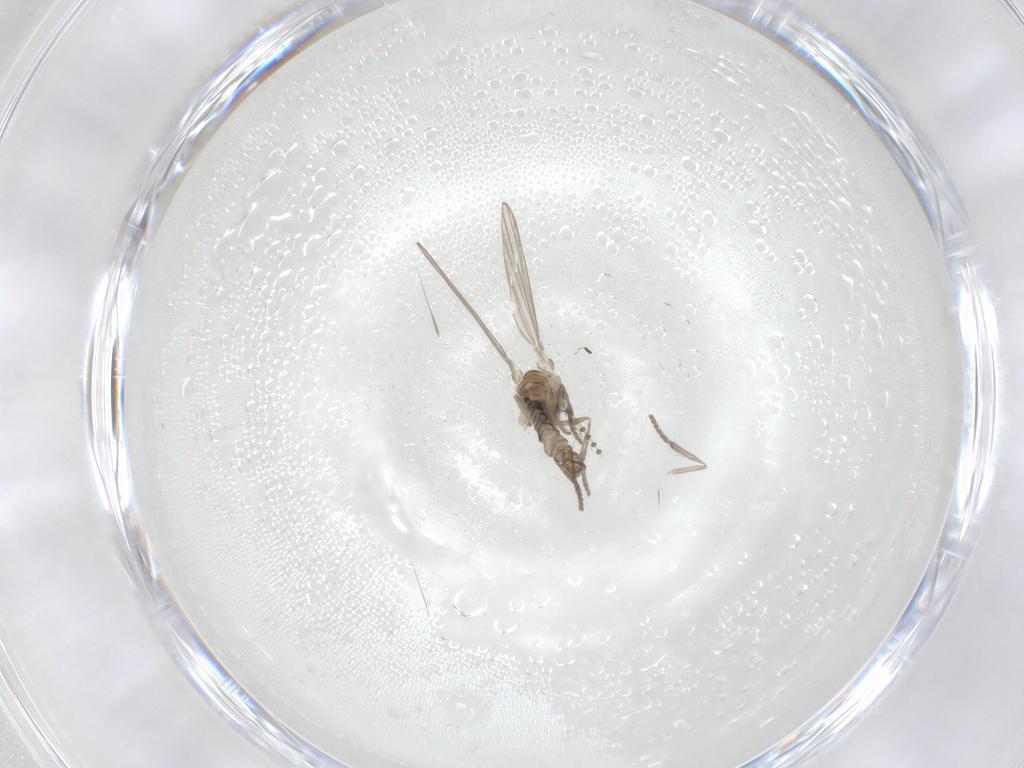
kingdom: Animalia
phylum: Arthropoda
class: Insecta
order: Diptera
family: Psychodidae
